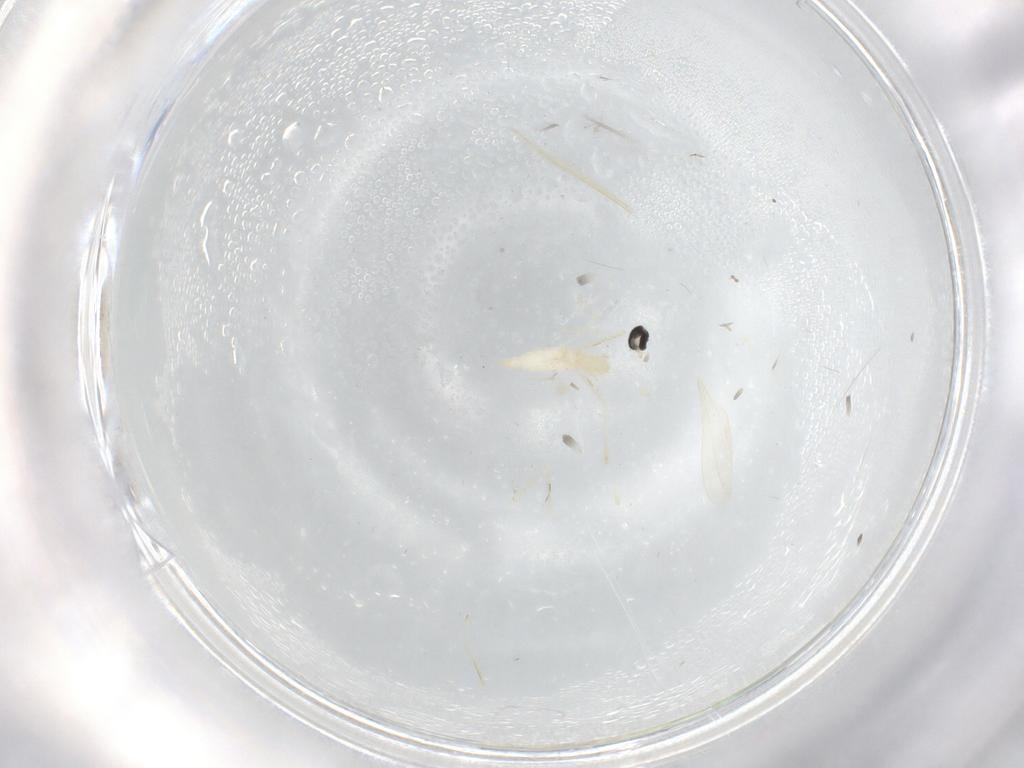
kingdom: Animalia
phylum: Arthropoda
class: Insecta
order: Diptera
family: Cecidomyiidae
